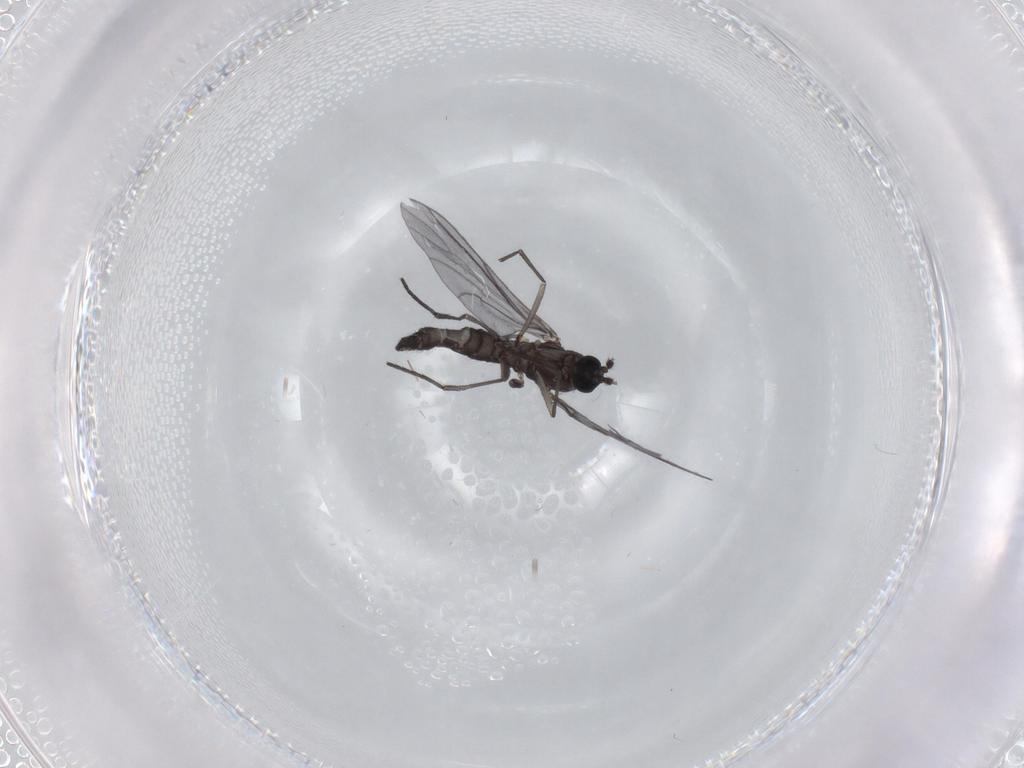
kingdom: Animalia
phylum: Arthropoda
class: Insecta
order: Diptera
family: Sciaridae
